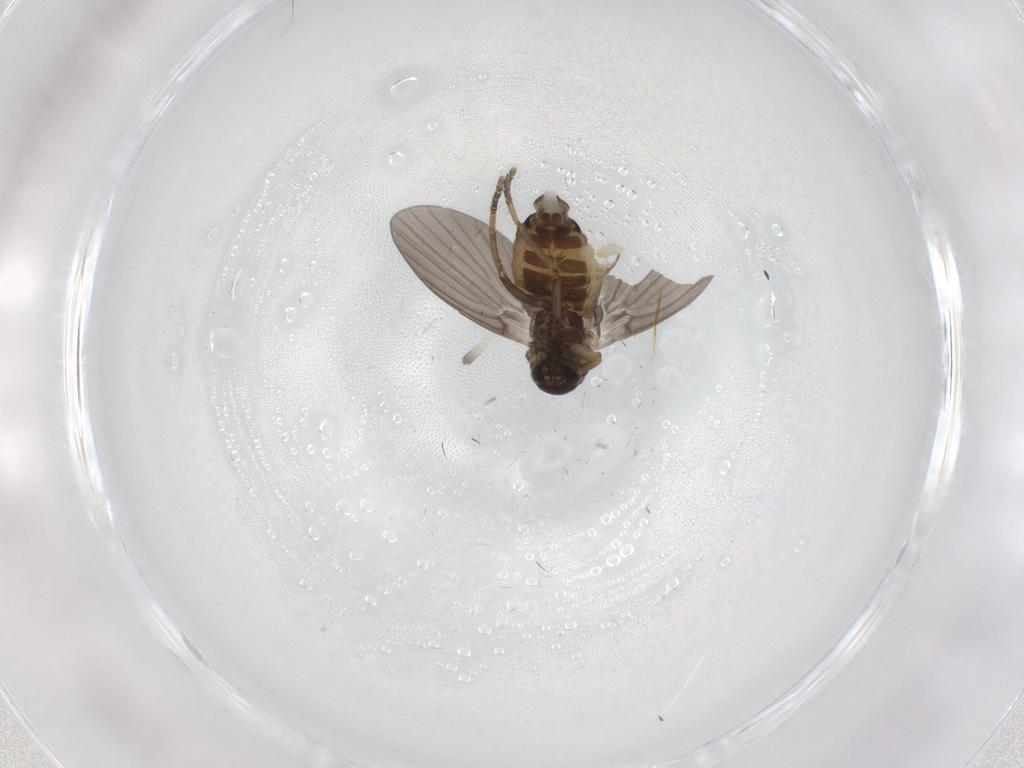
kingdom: Animalia
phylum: Arthropoda
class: Insecta
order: Diptera
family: Psychodidae
